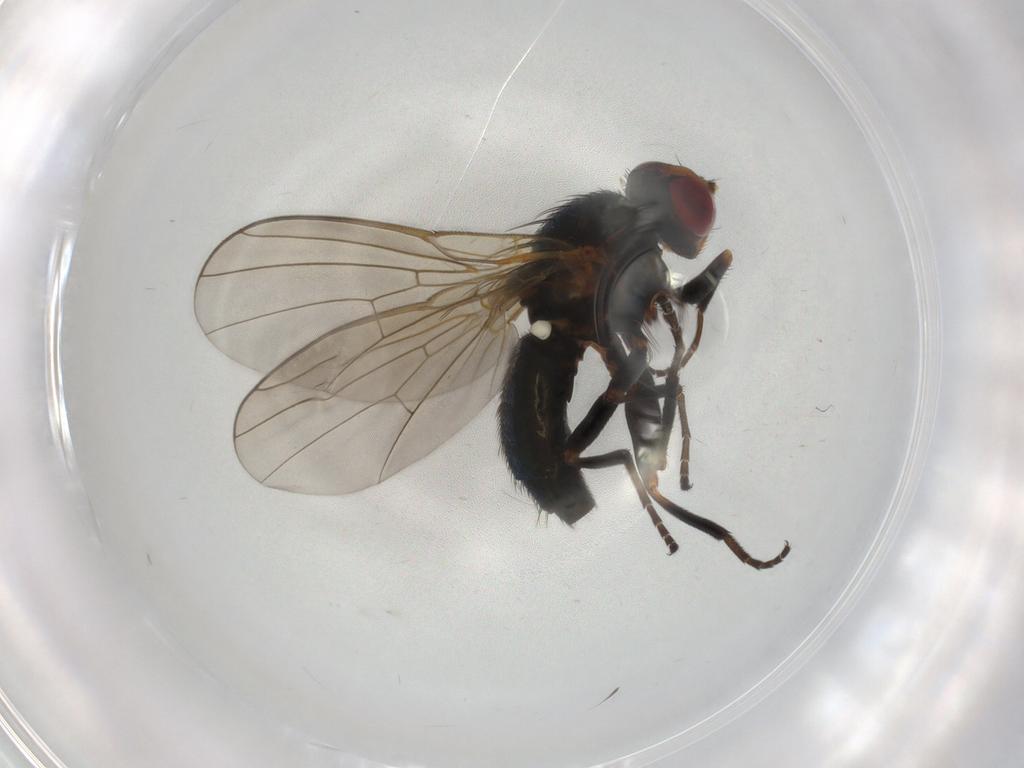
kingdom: Animalia
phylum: Arthropoda
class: Insecta
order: Diptera
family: Agromyzidae
